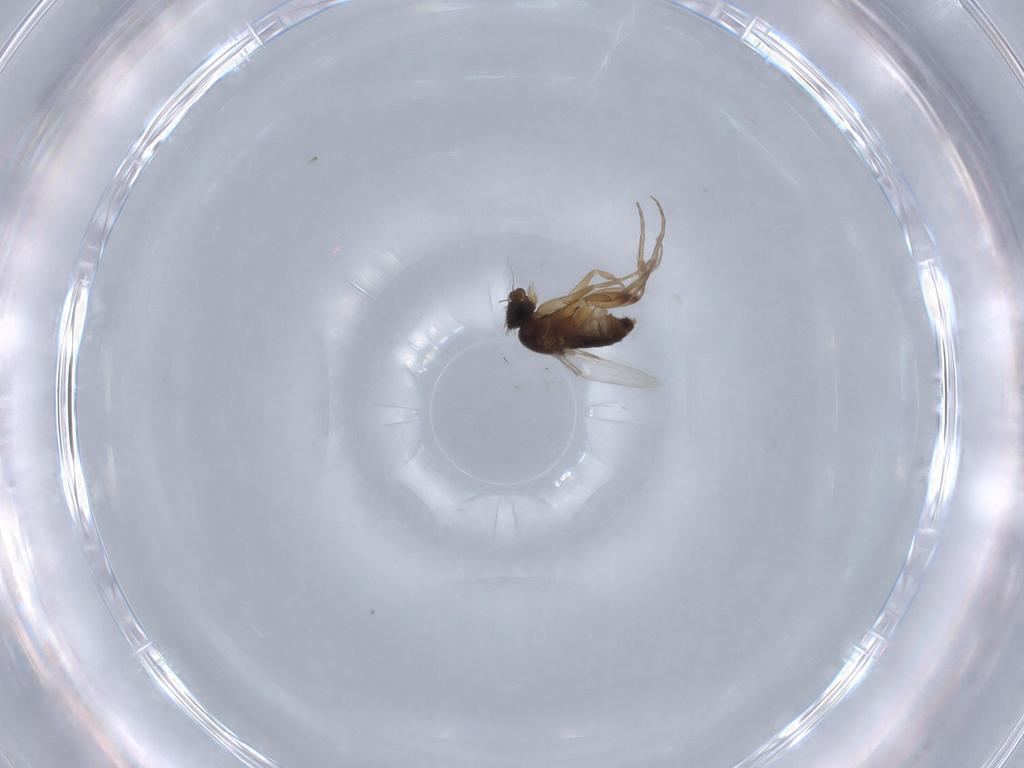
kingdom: Animalia
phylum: Arthropoda
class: Insecta
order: Diptera
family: Phoridae
